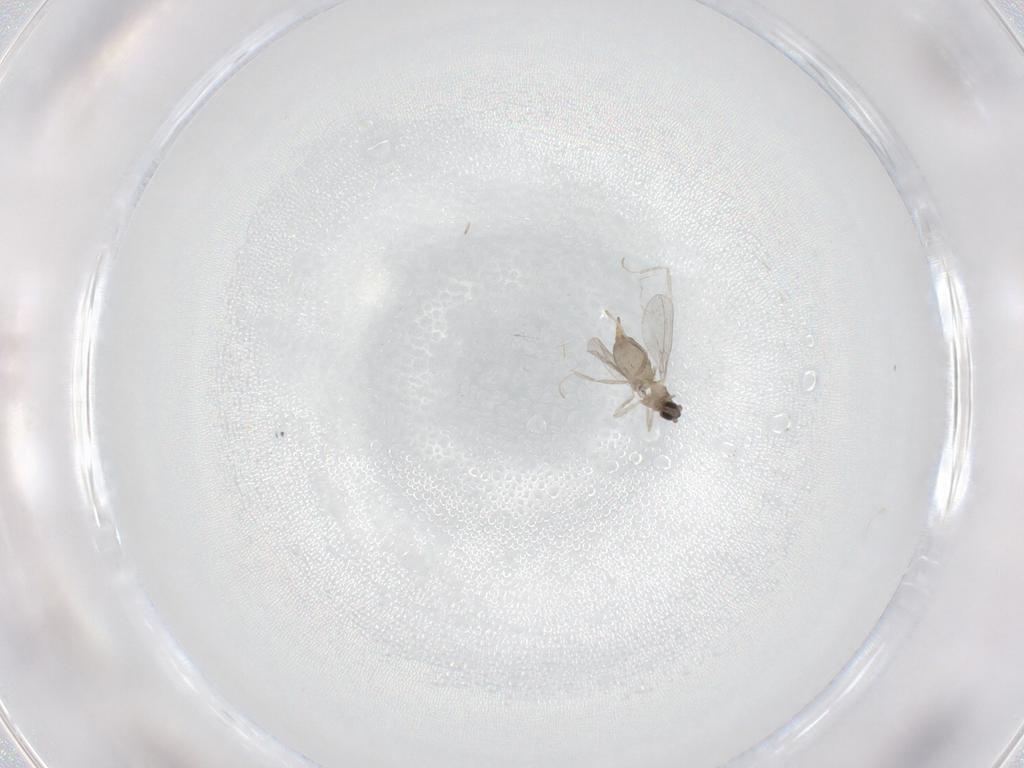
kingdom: Animalia
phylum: Arthropoda
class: Insecta
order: Diptera
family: Cecidomyiidae
